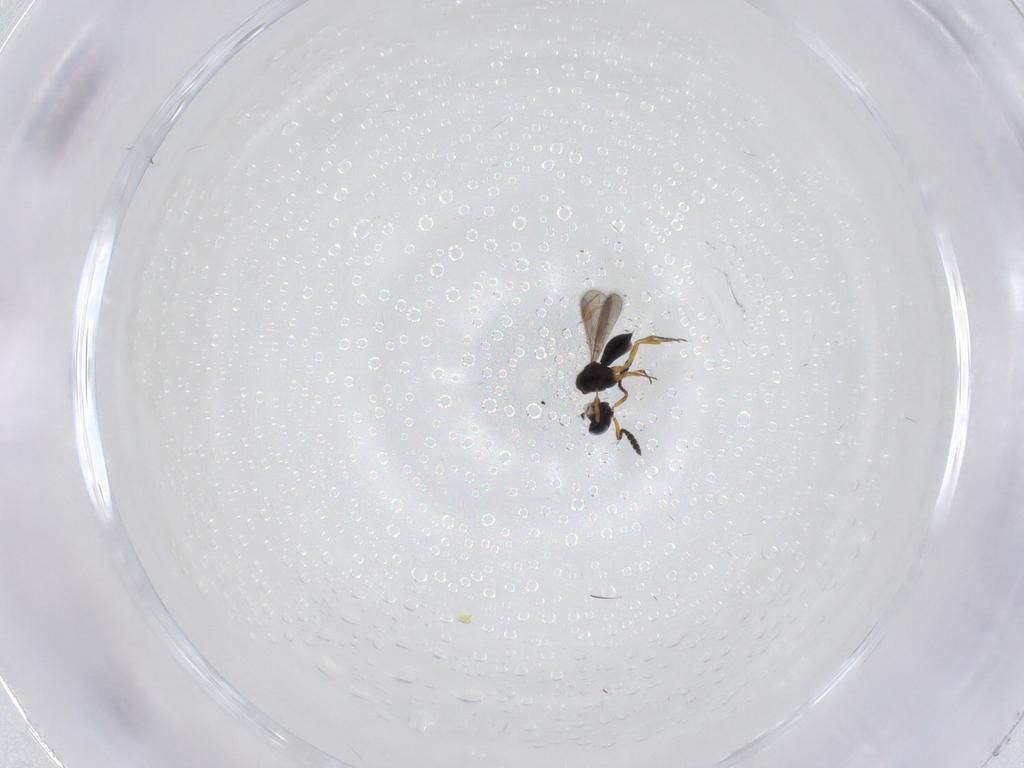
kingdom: Animalia
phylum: Arthropoda
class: Insecta
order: Hymenoptera
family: Scelionidae
